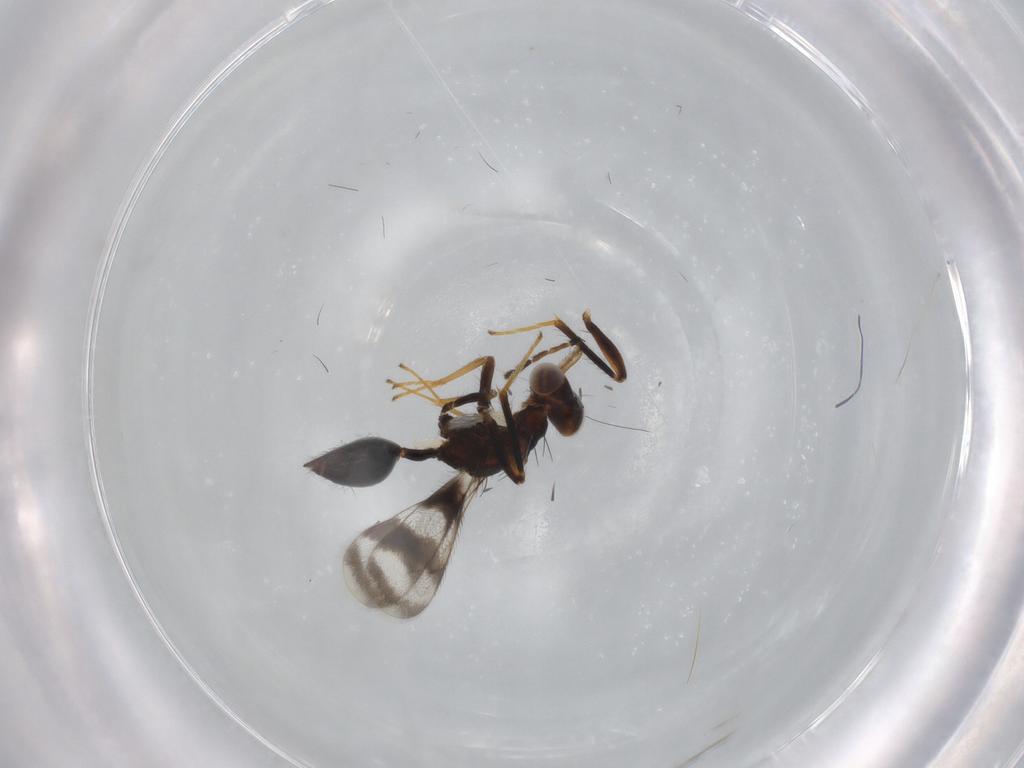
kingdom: Animalia
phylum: Arthropoda
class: Insecta
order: Hymenoptera
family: Eulophidae
